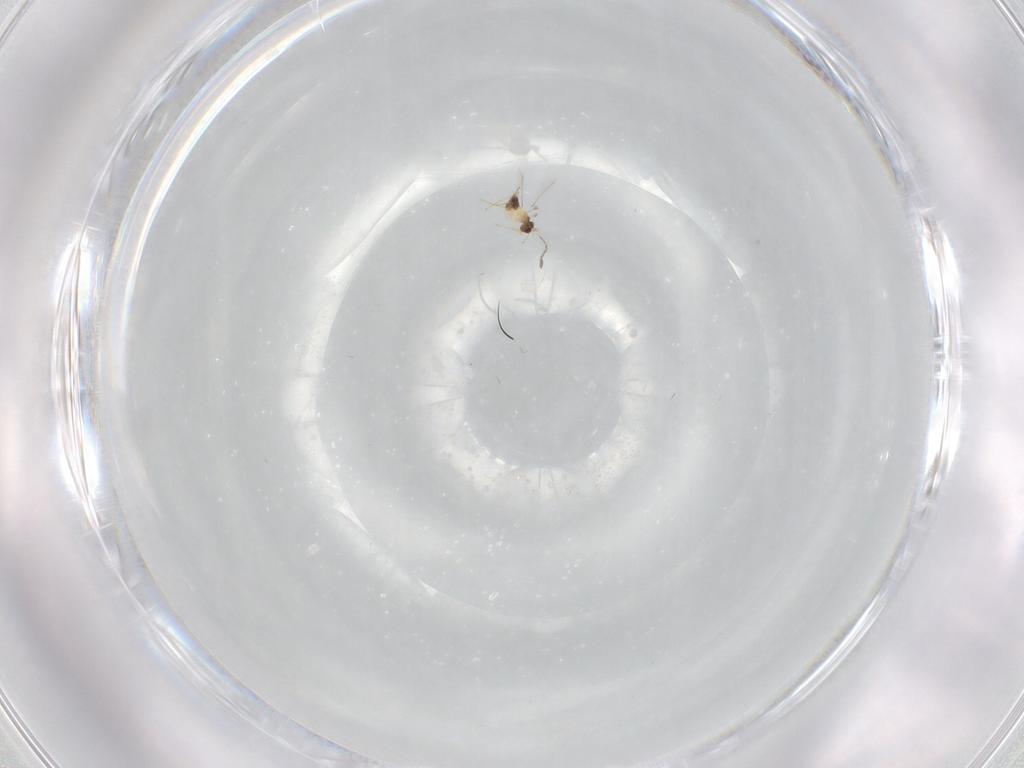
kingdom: Animalia
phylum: Arthropoda
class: Insecta
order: Hymenoptera
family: Mymaridae
